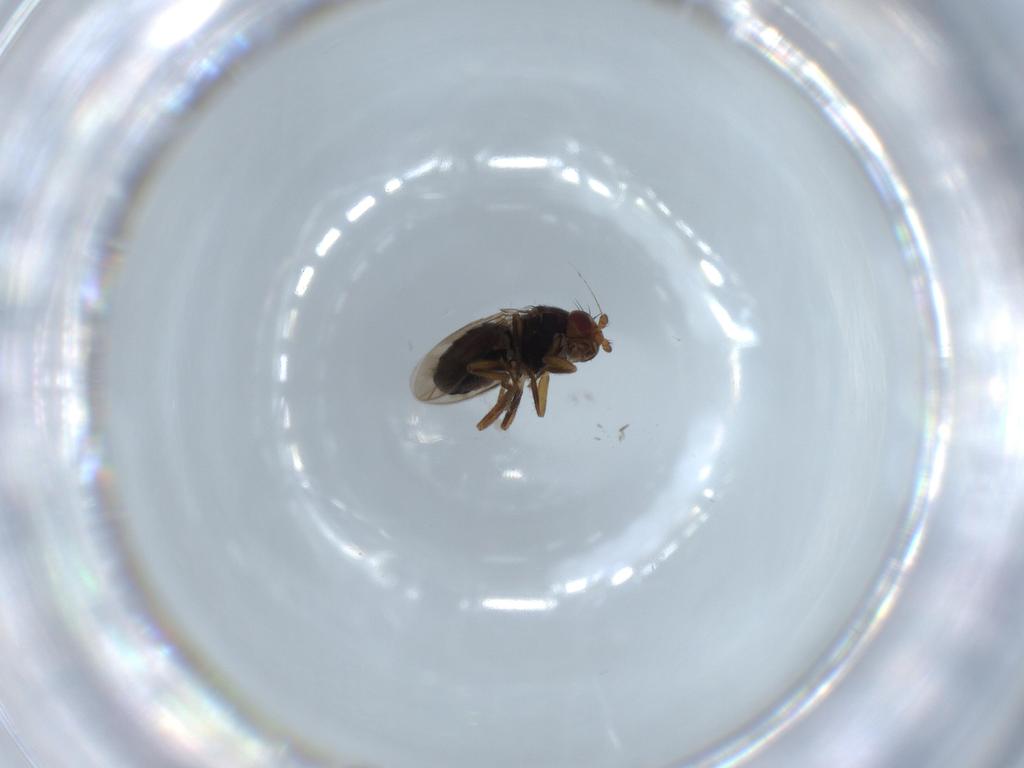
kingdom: Animalia
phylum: Arthropoda
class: Insecta
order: Diptera
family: Sphaeroceridae
